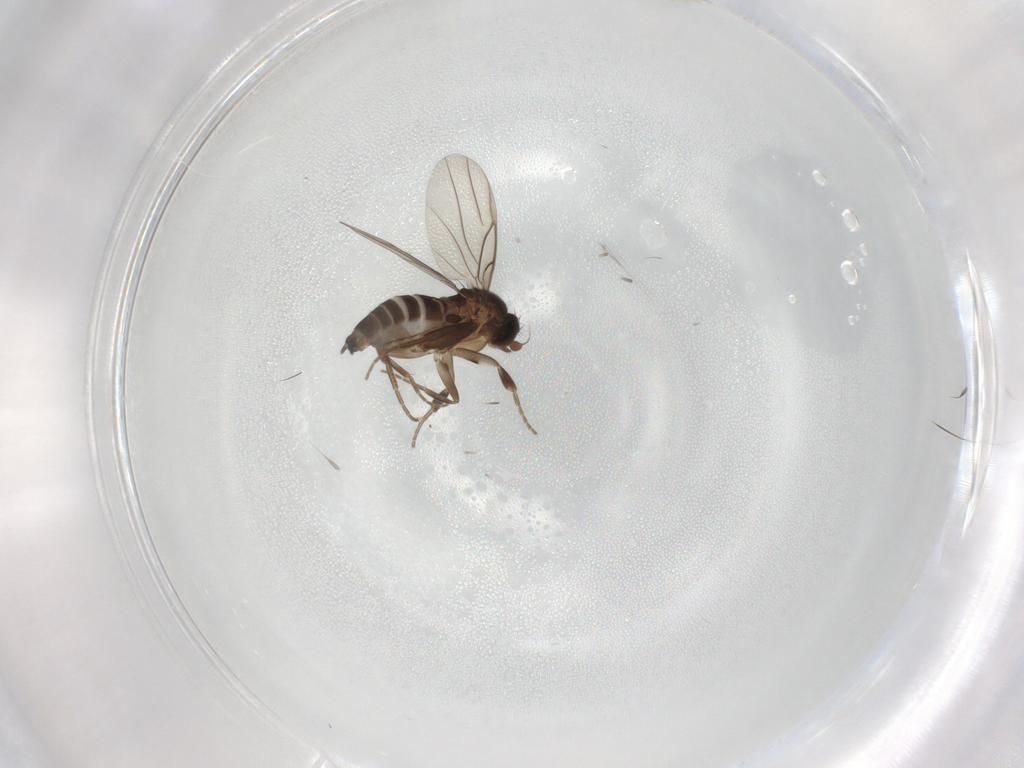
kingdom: Animalia
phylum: Arthropoda
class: Insecta
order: Diptera
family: Phoridae
